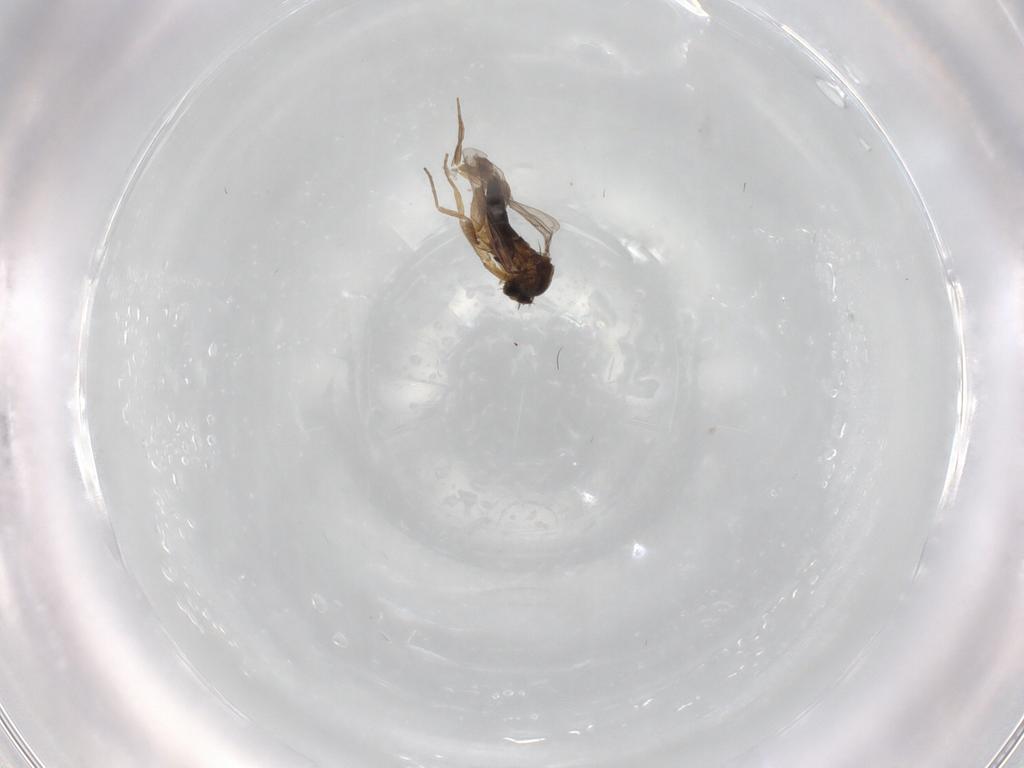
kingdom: Animalia
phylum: Arthropoda
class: Insecta
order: Diptera
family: Cecidomyiidae
